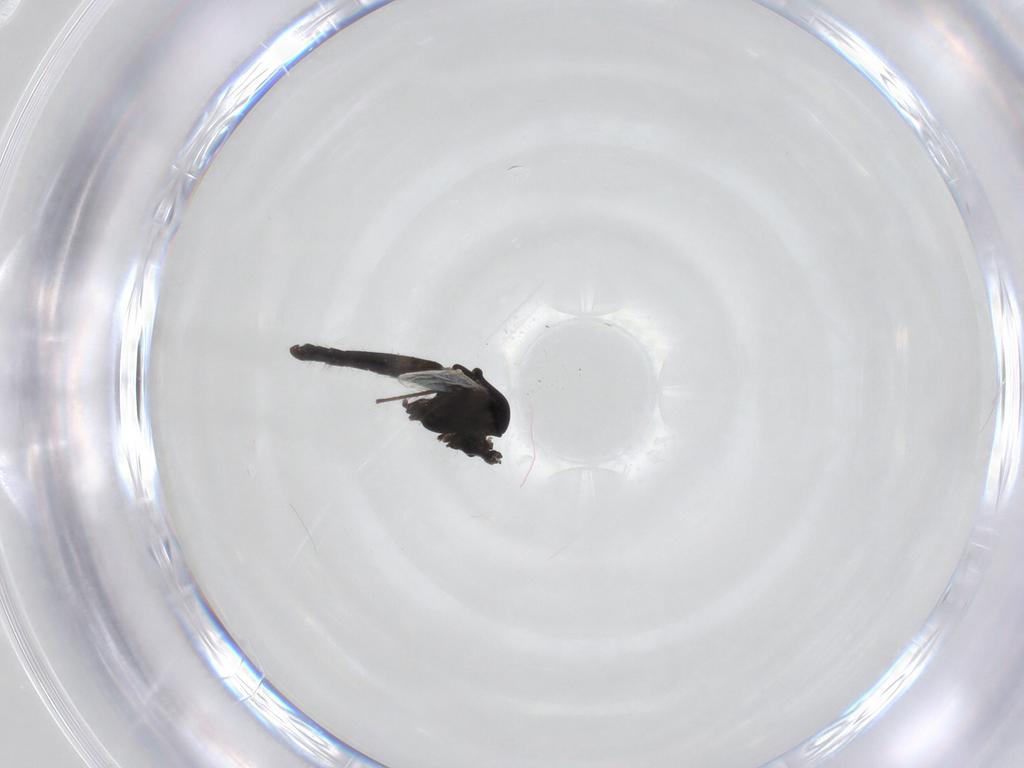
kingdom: Animalia
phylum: Arthropoda
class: Insecta
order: Diptera
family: Chironomidae
